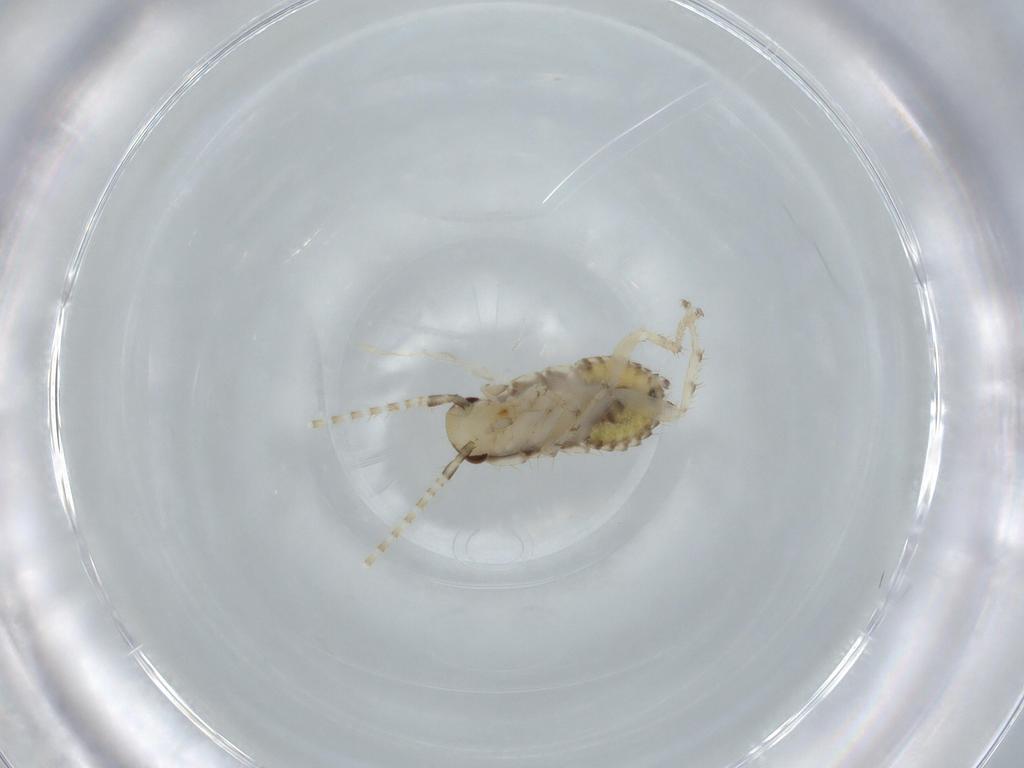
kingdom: Animalia
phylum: Arthropoda
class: Insecta
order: Blattodea
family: Ectobiidae
